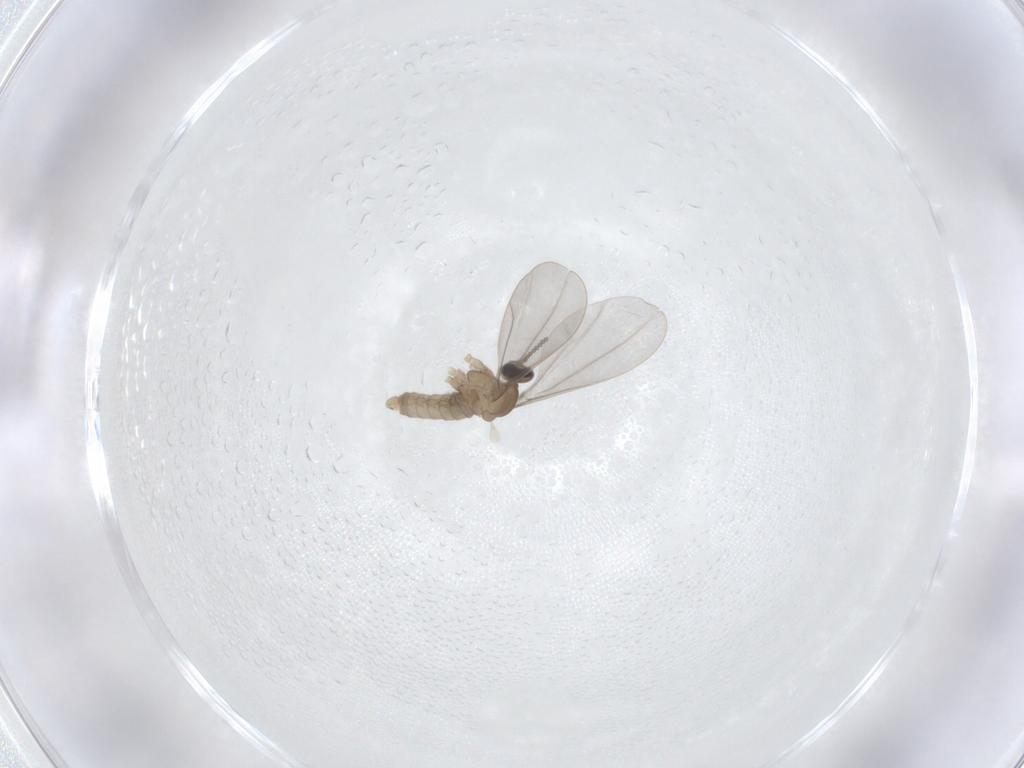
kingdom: Animalia
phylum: Arthropoda
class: Insecta
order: Diptera
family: Cecidomyiidae
